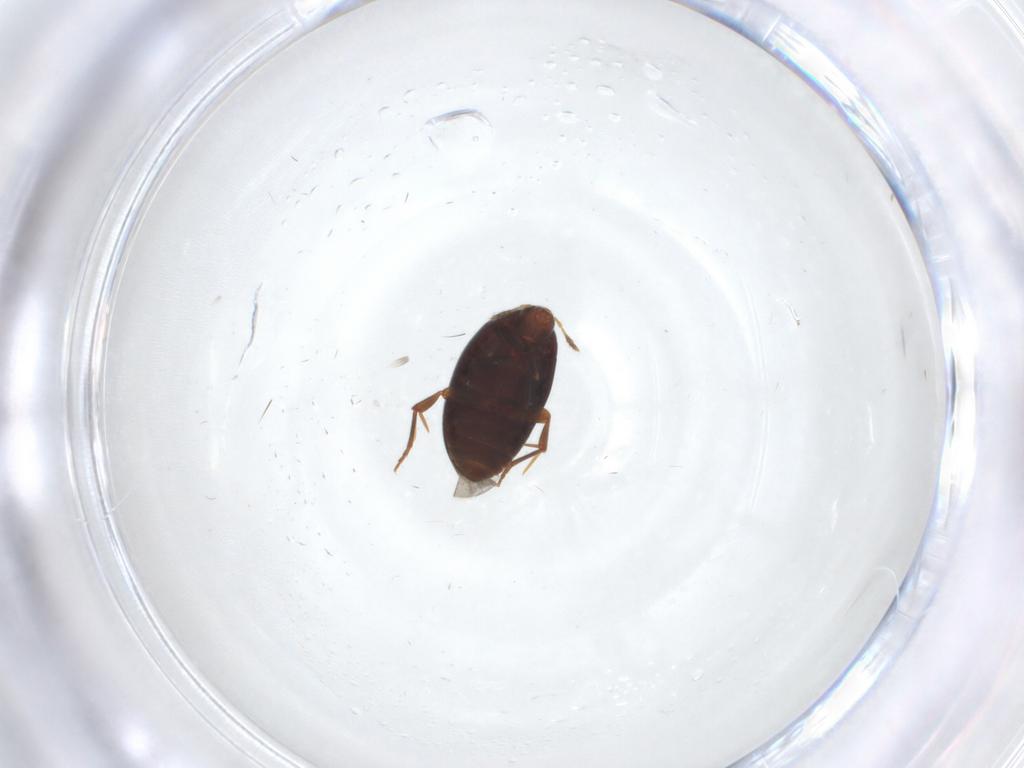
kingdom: Animalia
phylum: Arthropoda
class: Insecta
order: Coleoptera
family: Melandryidae
